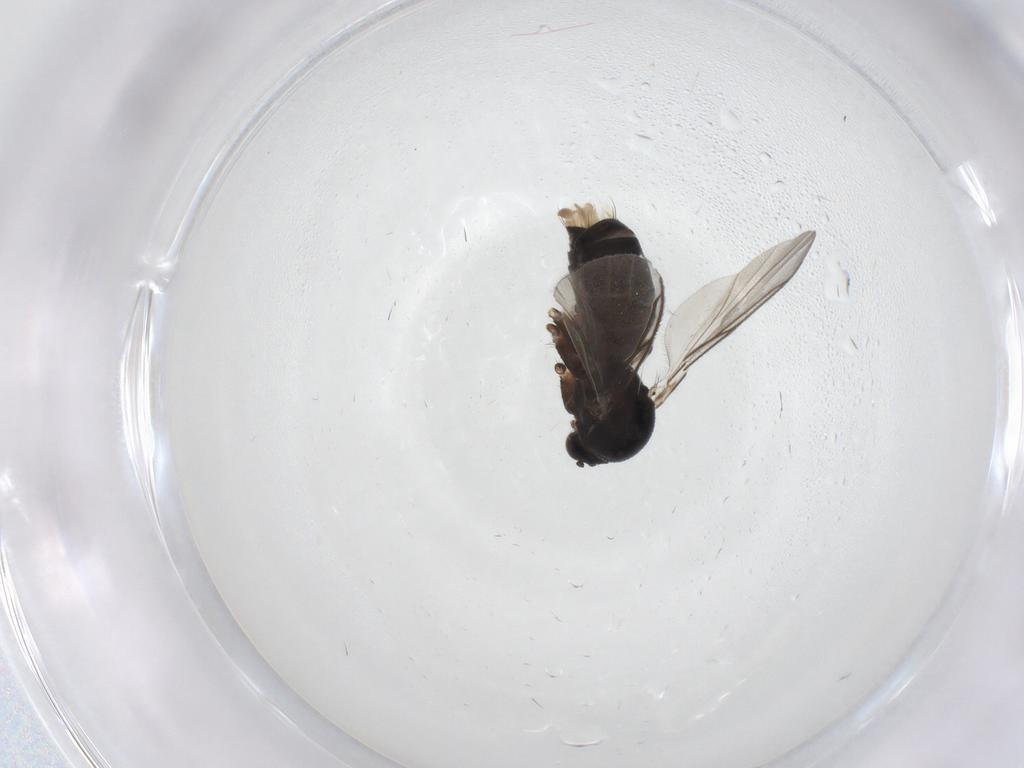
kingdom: Animalia
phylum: Arthropoda
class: Insecta
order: Diptera
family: Mycetophilidae
